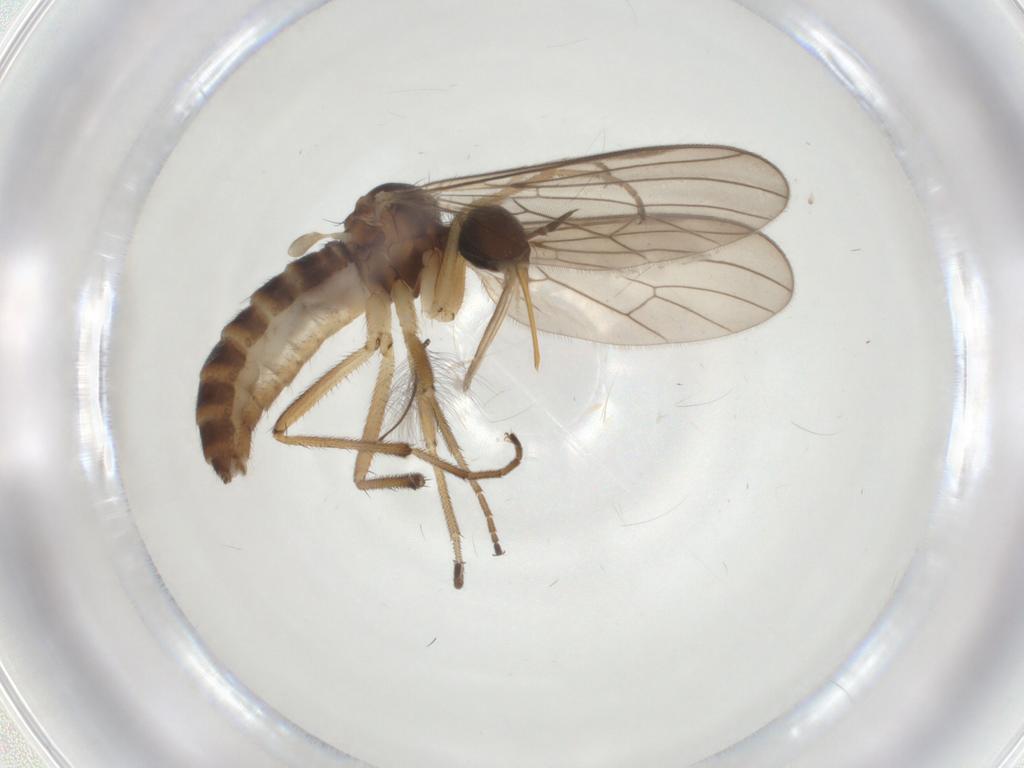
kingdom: Animalia
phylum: Arthropoda
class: Insecta
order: Diptera
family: Empididae
